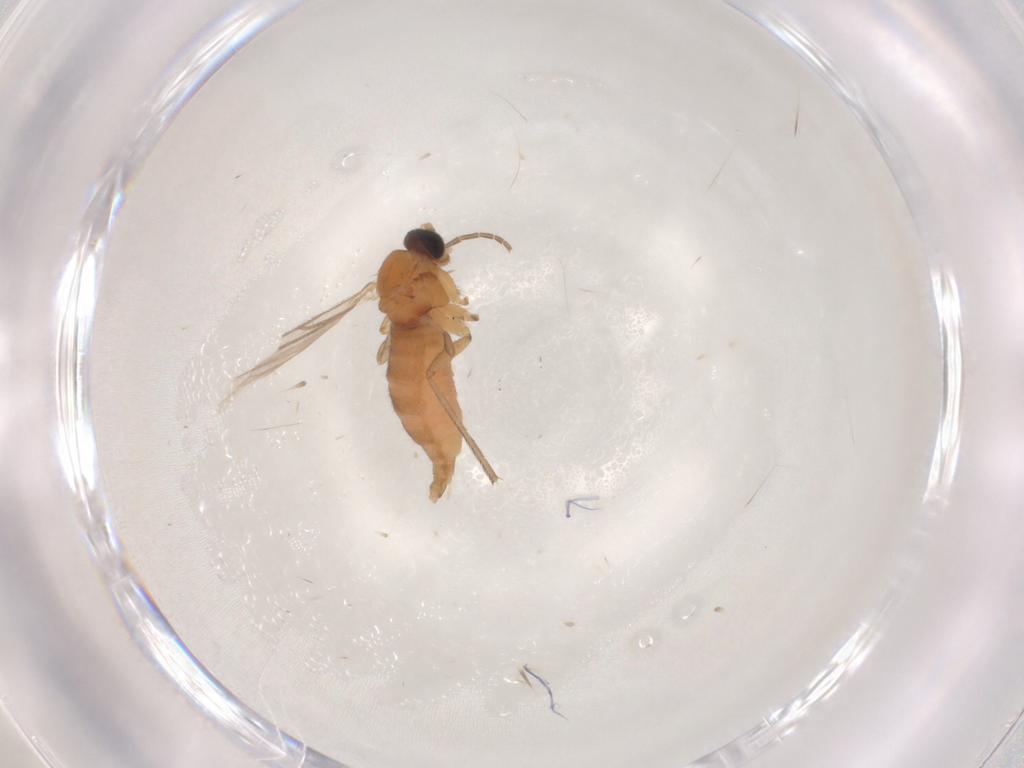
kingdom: Animalia
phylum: Arthropoda
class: Insecta
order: Diptera
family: Sciaridae
